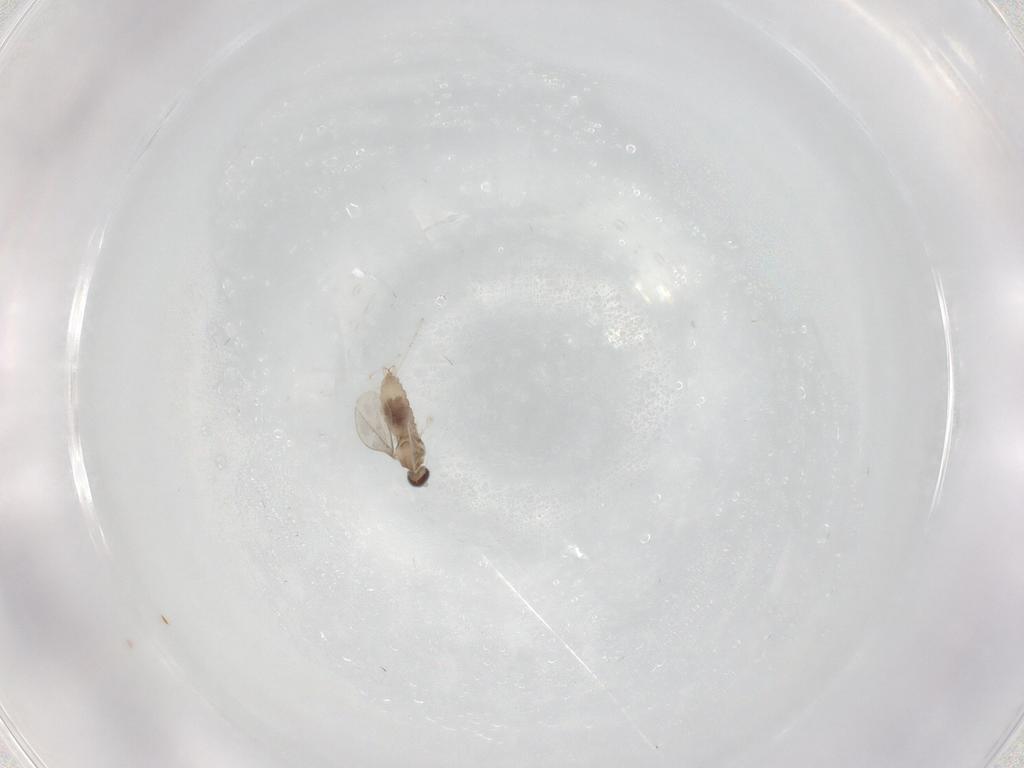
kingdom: Animalia
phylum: Arthropoda
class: Insecta
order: Diptera
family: Cecidomyiidae
